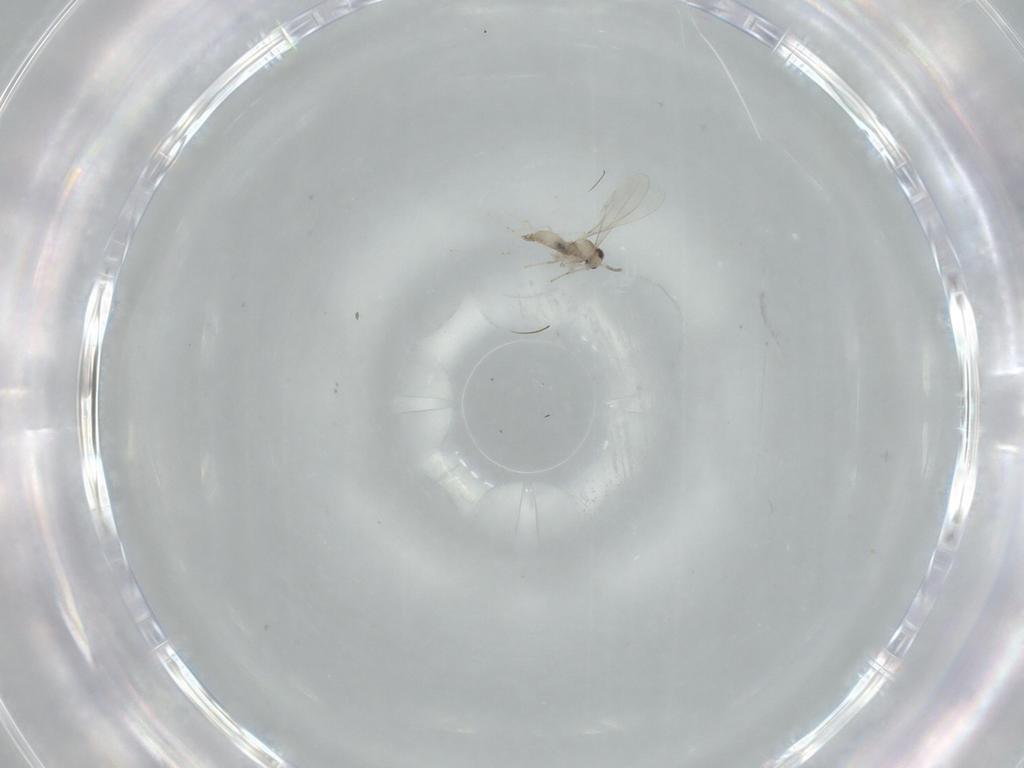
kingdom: Animalia
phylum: Arthropoda
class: Insecta
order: Diptera
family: Cecidomyiidae
